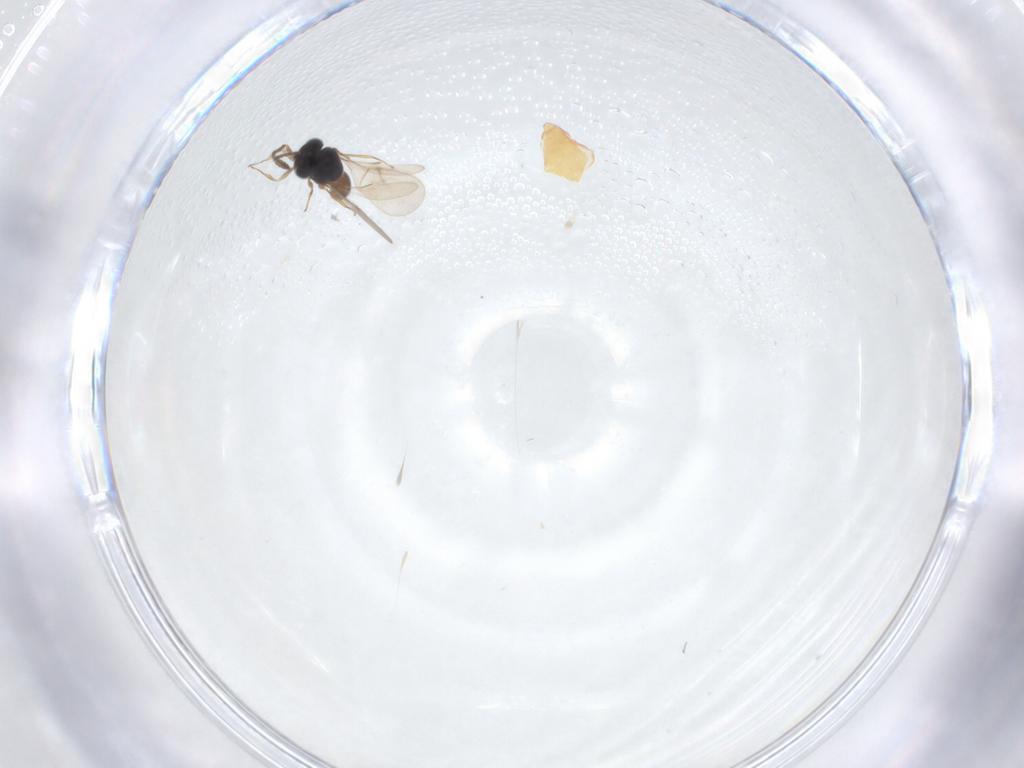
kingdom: Animalia
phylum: Arthropoda
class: Arachnida
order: Araneae
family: Pholcidae
